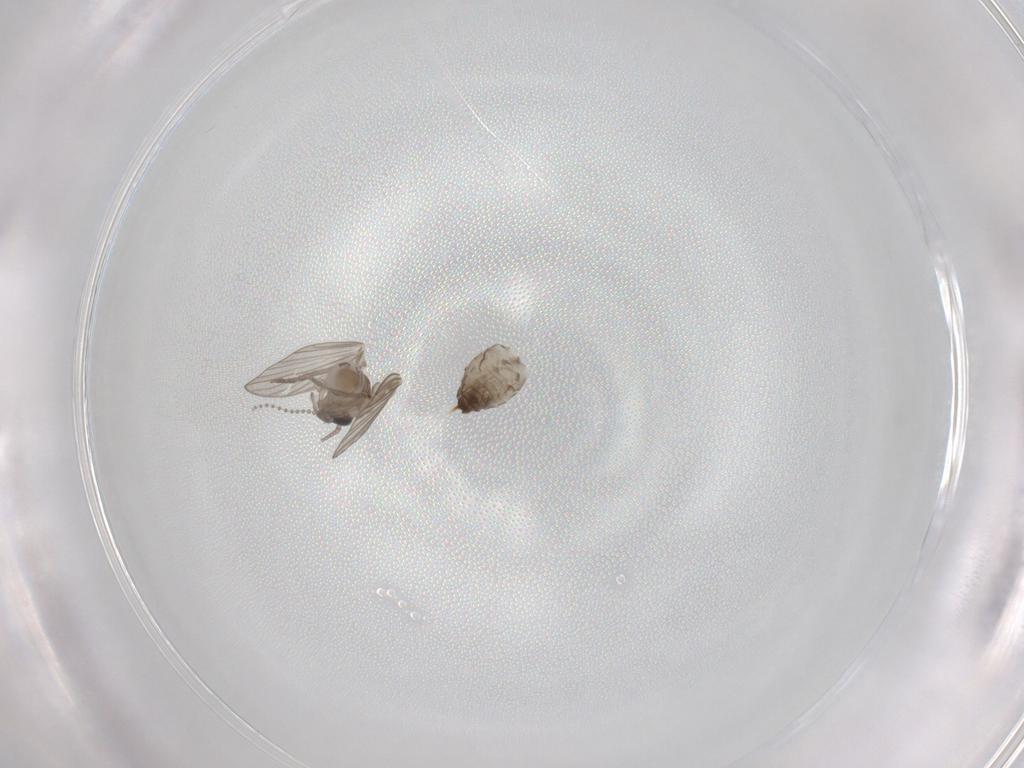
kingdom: Animalia
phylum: Arthropoda
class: Insecta
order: Diptera
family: Psychodidae
